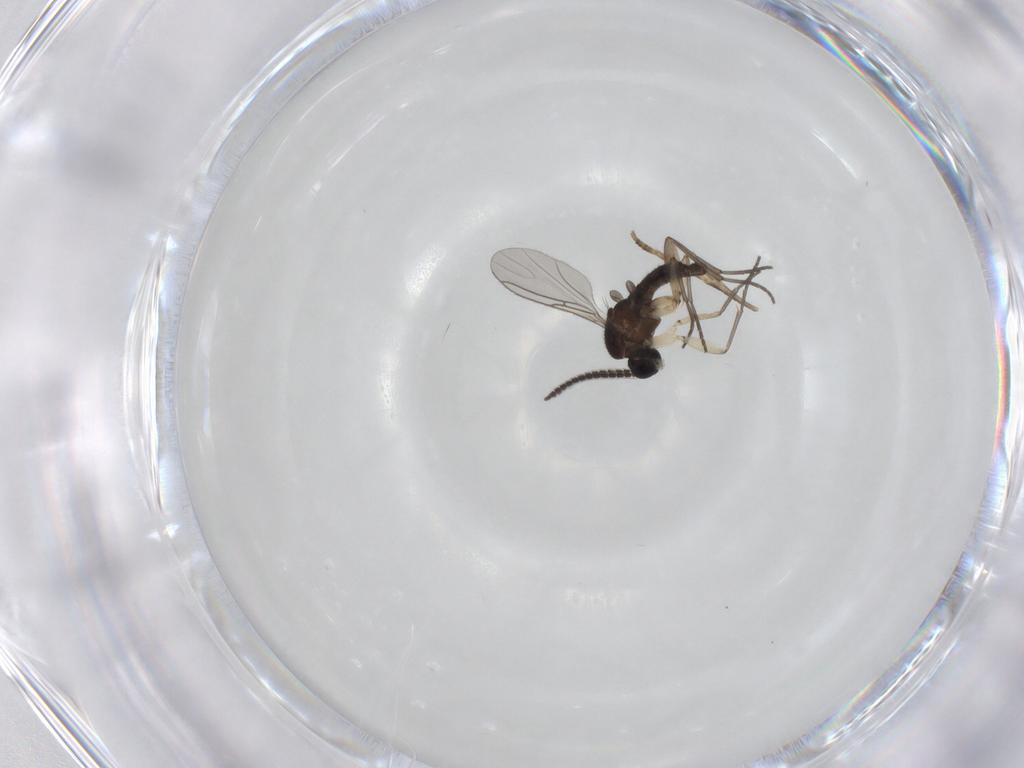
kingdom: Animalia
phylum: Arthropoda
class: Insecta
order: Diptera
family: Sciaridae
